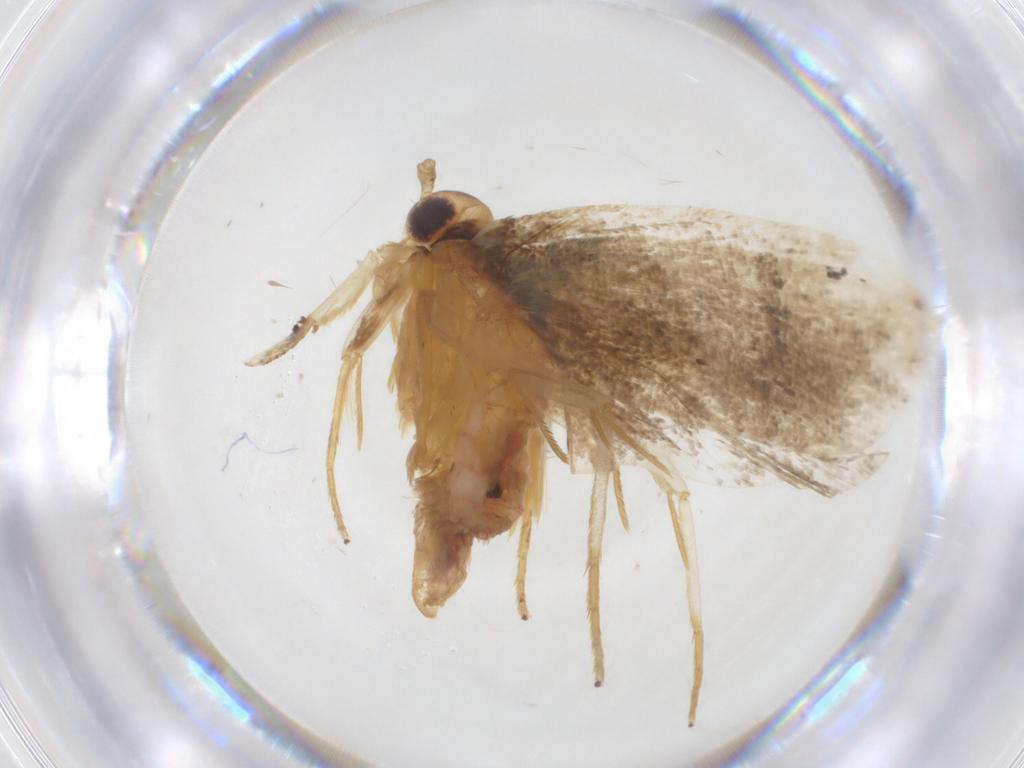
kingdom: Animalia
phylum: Arthropoda
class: Insecta
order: Lepidoptera
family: Lecithoceridae
